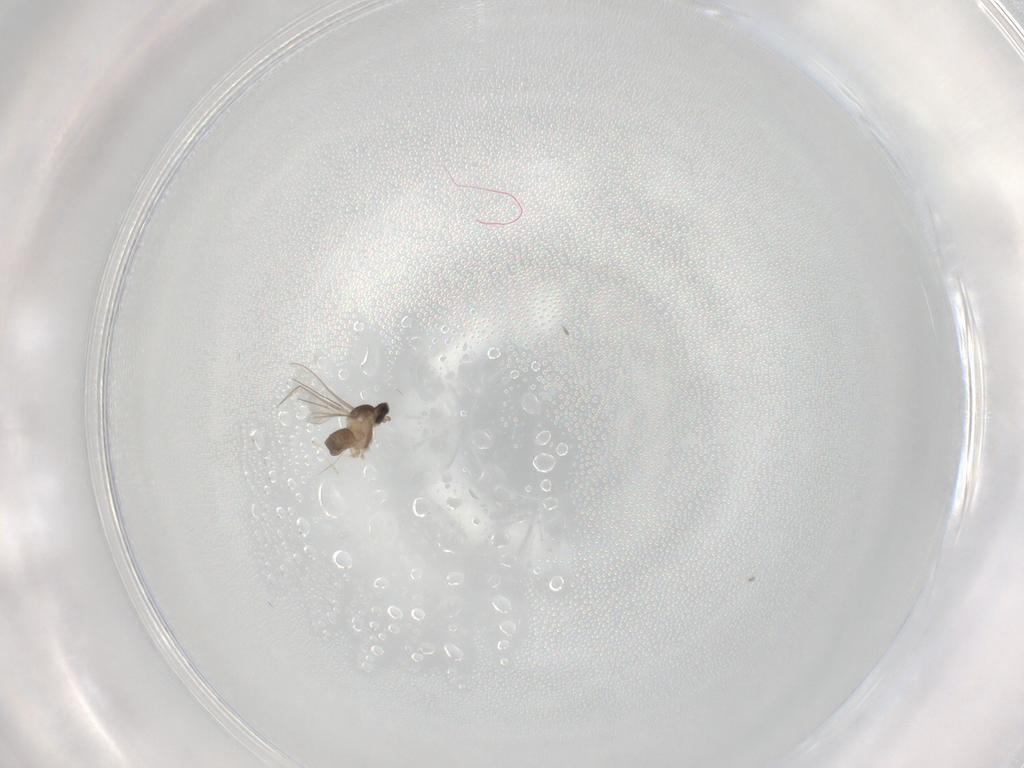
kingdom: Animalia
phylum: Arthropoda
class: Insecta
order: Diptera
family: Cecidomyiidae
